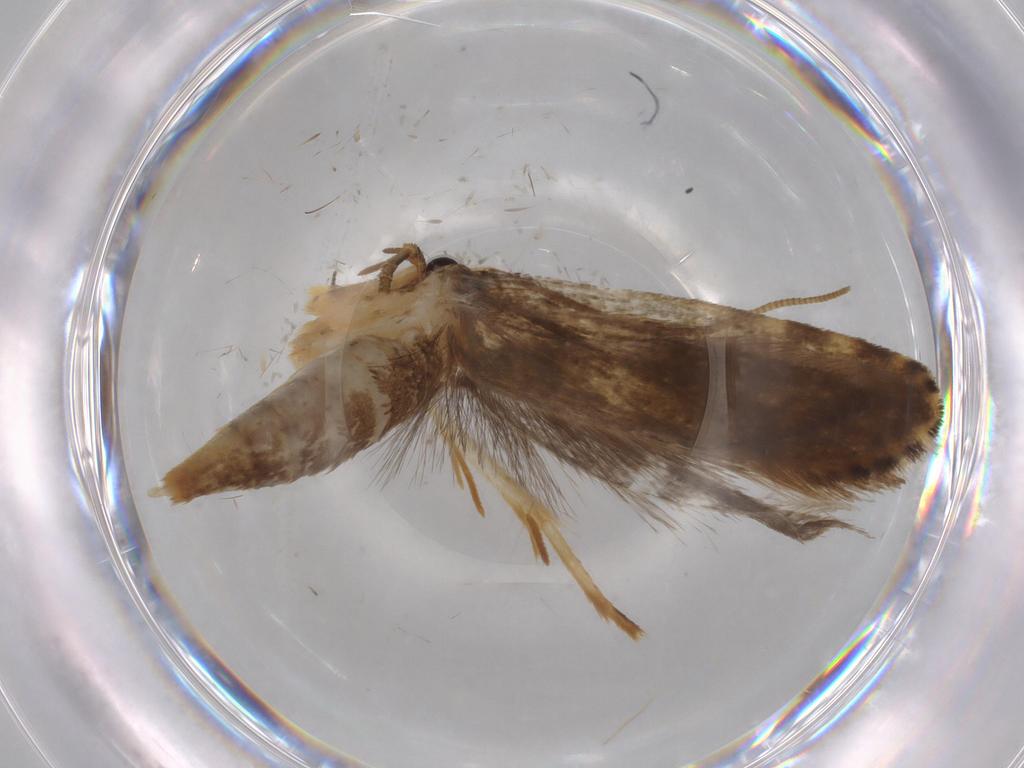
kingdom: Animalia
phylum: Arthropoda
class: Insecta
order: Lepidoptera
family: Tineidae
